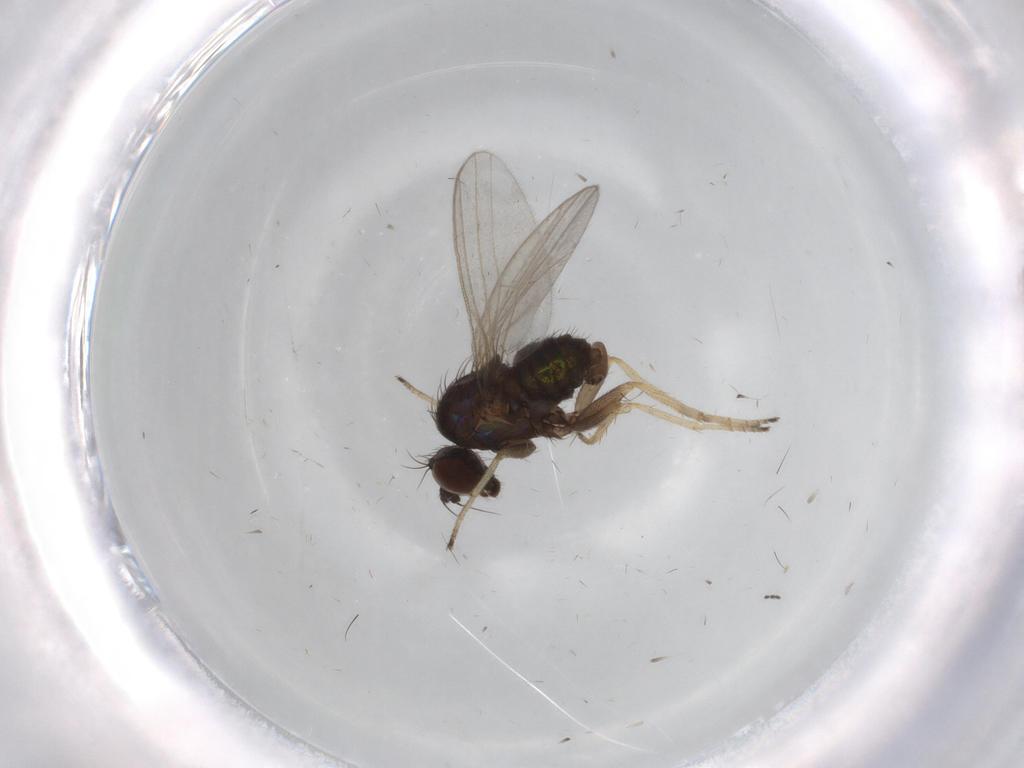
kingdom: Animalia
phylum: Arthropoda
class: Insecta
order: Diptera
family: Dolichopodidae
